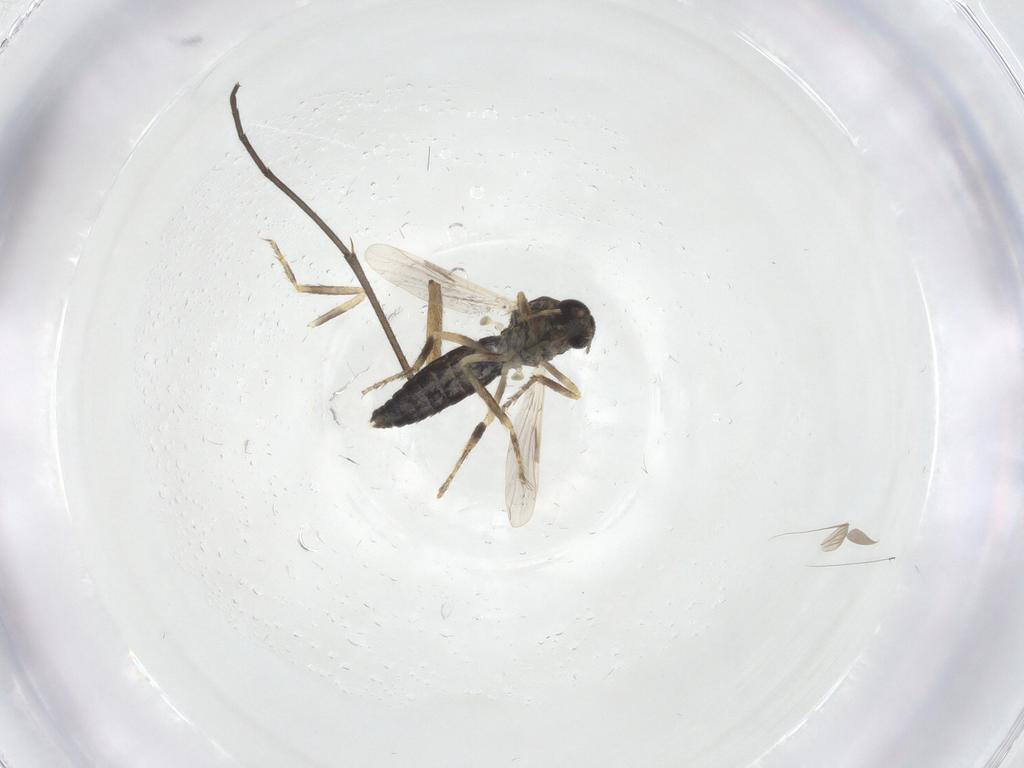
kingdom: Animalia
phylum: Arthropoda
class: Insecta
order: Diptera
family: Ceratopogonidae
